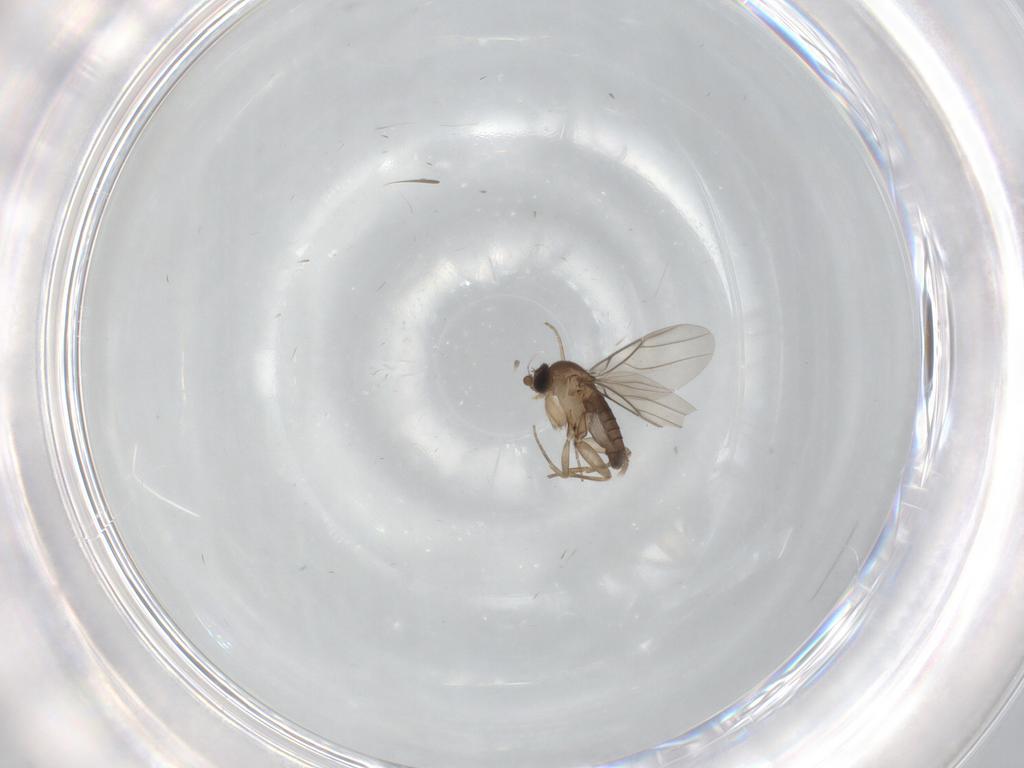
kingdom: Animalia
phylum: Arthropoda
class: Insecta
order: Diptera
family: Ceratopogonidae
